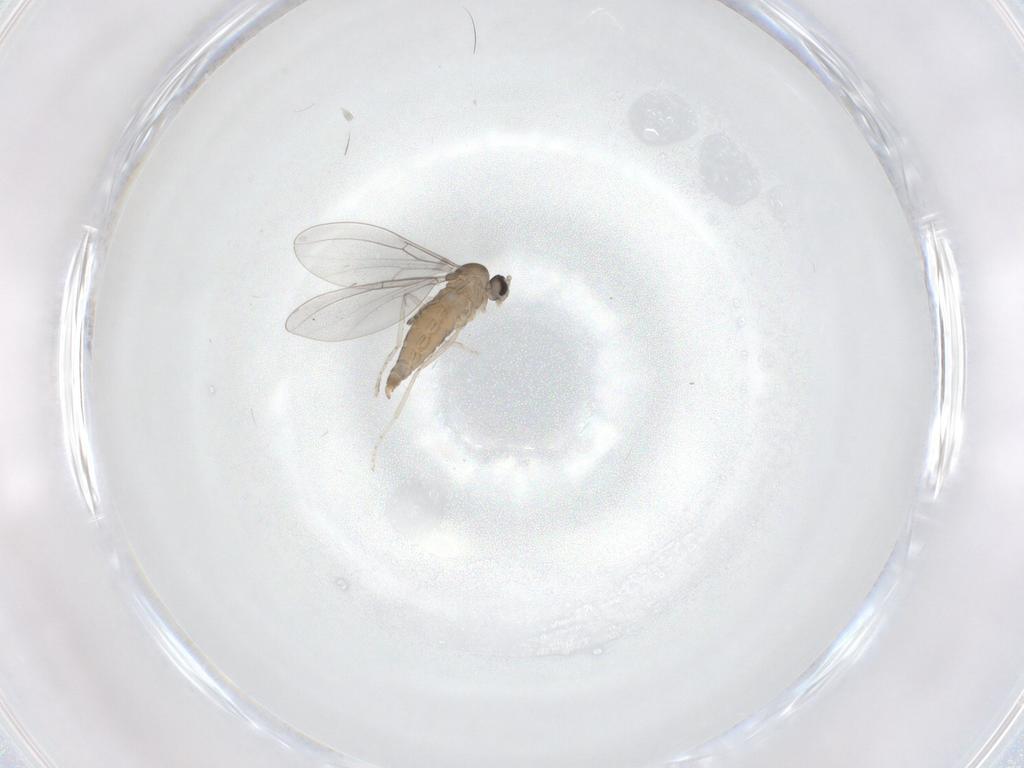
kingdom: Animalia
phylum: Arthropoda
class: Insecta
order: Diptera
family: Cecidomyiidae
